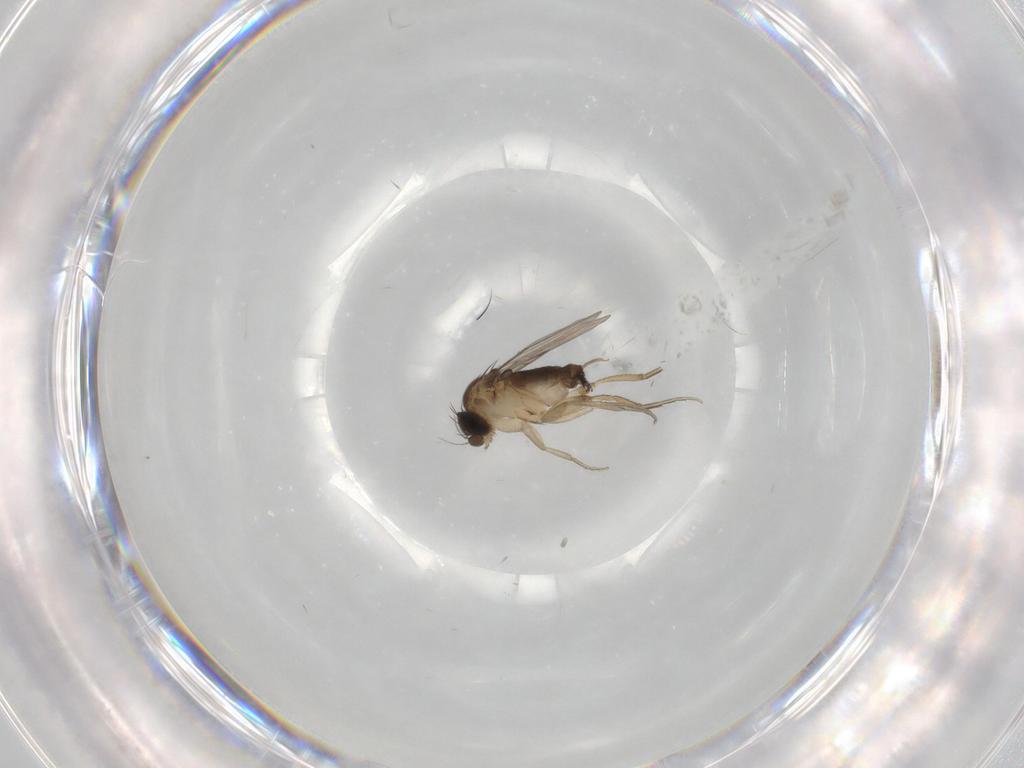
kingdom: Animalia
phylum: Arthropoda
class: Insecta
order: Diptera
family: Phoridae
